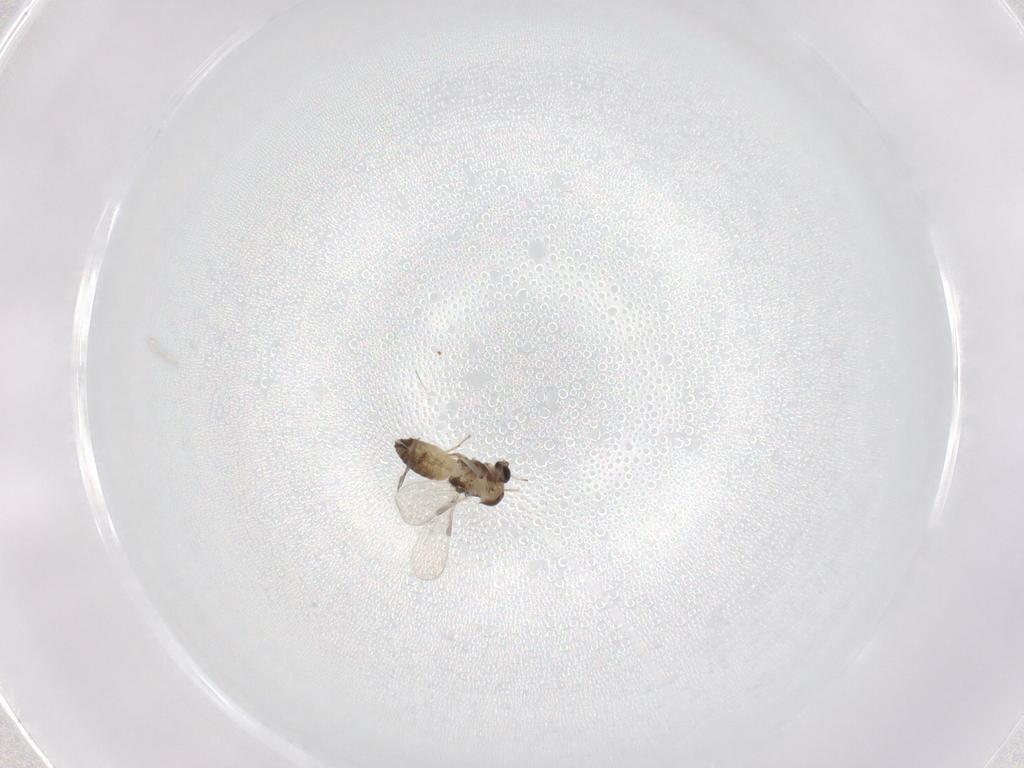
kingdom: Animalia
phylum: Arthropoda
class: Insecta
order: Diptera
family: Chironomidae
